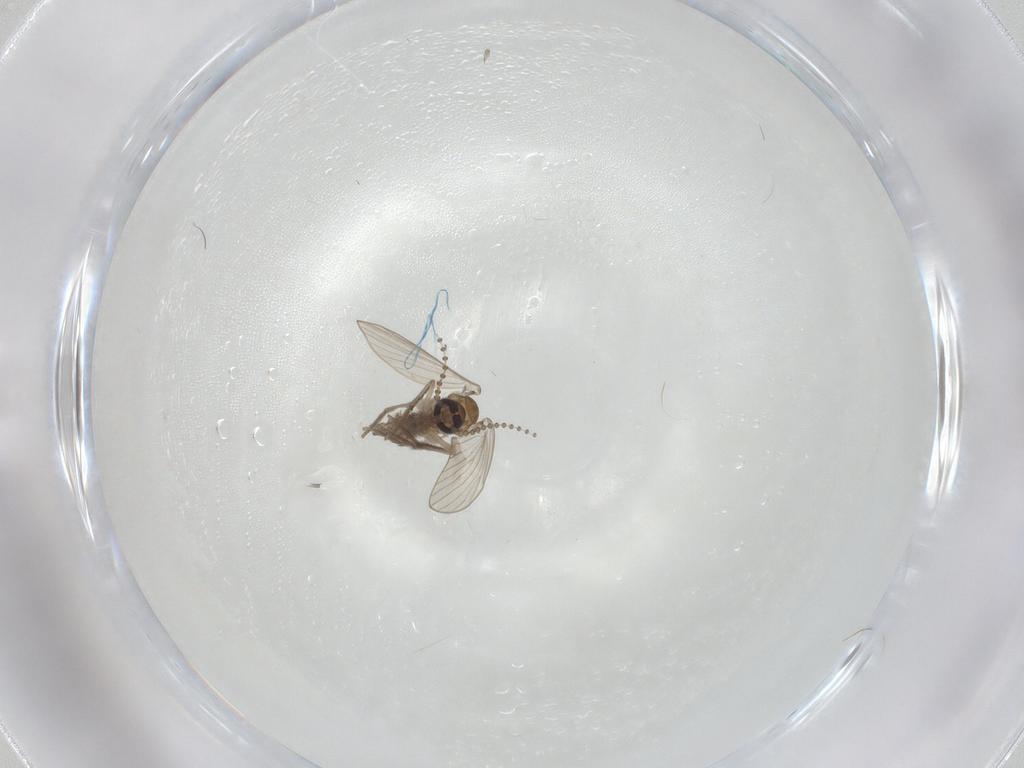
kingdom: Animalia
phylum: Arthropoda
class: Insecta
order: Diptera
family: Psychodidae
